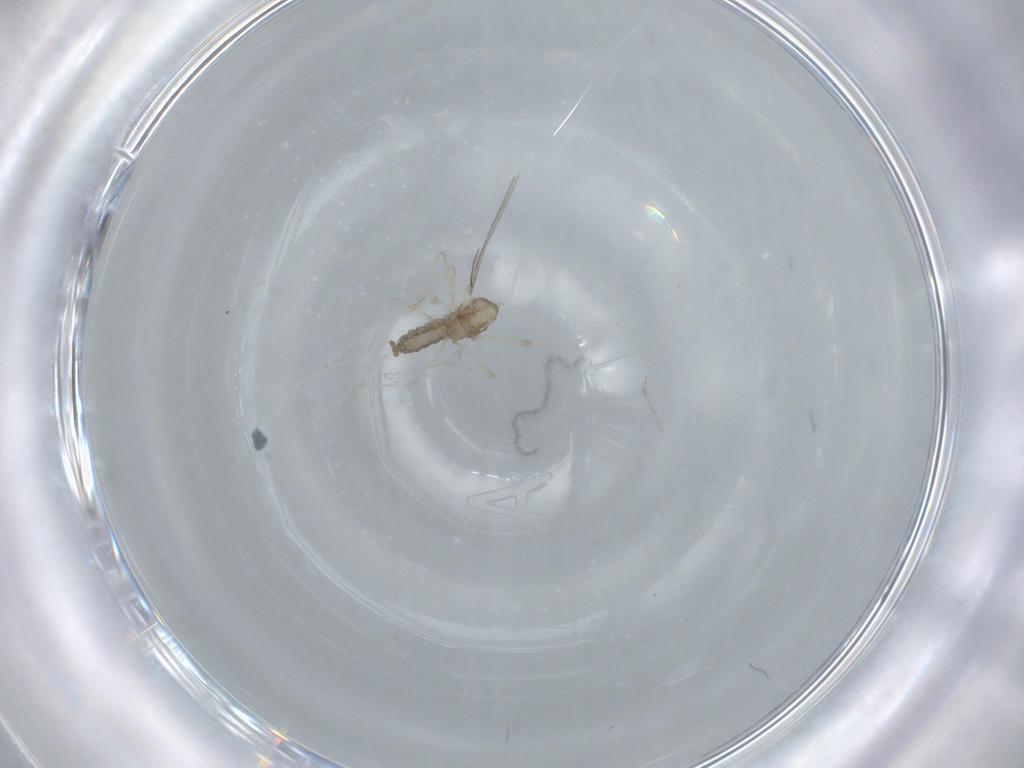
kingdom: Animalia
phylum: Arthropoda
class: Insecta
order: Diptera
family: Cecidomyiidae
